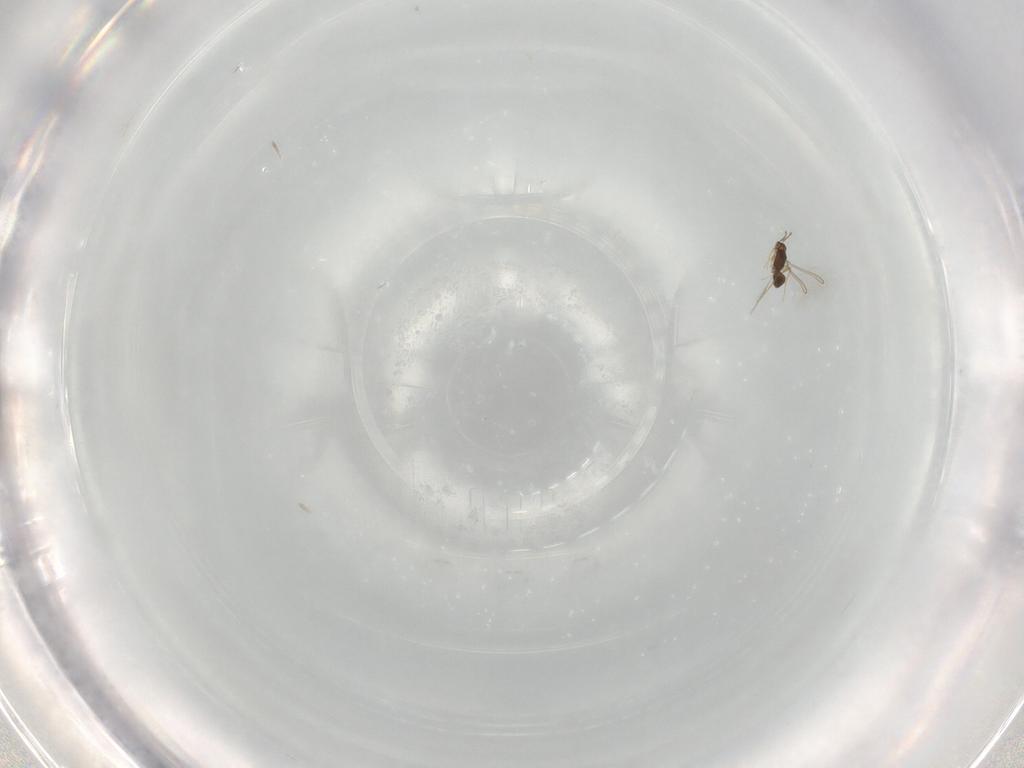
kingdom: Animalia
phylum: Arthropoda
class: Insecta
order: Hymenoptera
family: Mymaridae
